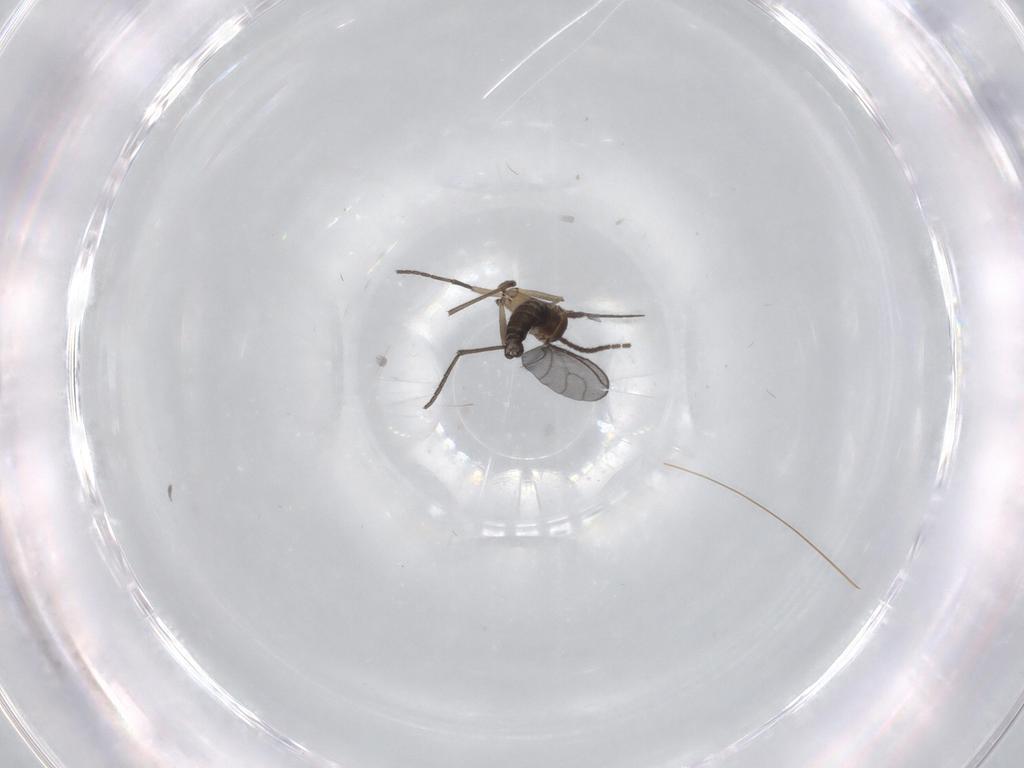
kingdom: Animalia
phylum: Arthropoda
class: Insecta
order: Diptera
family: Sciaridae
